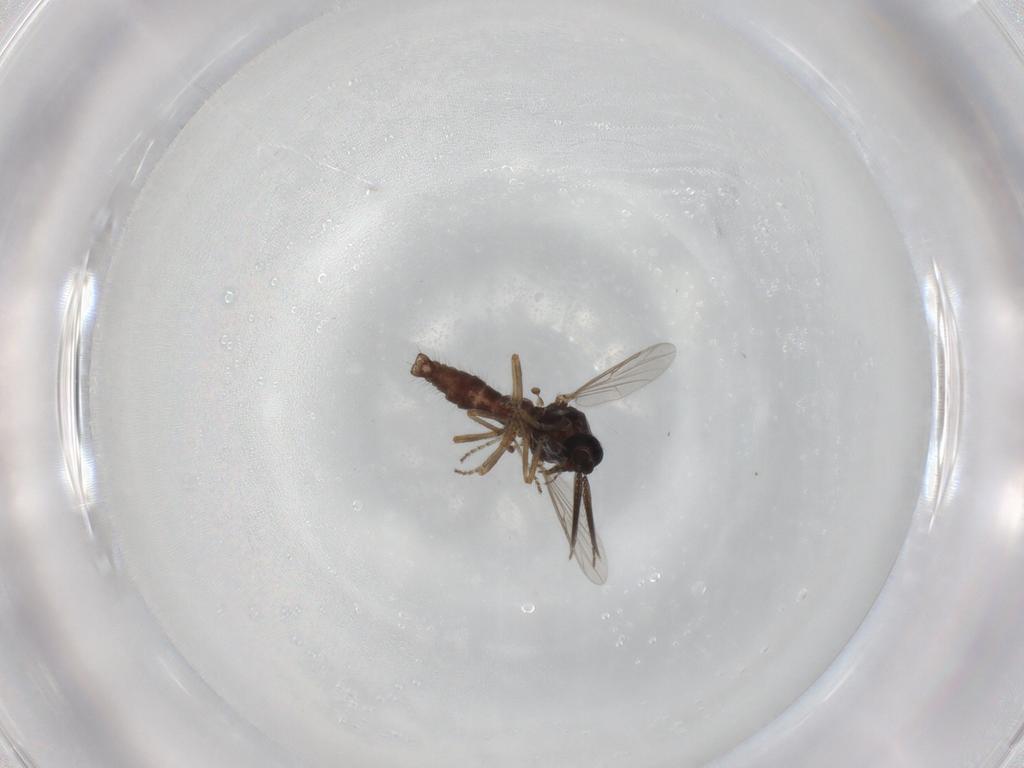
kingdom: Animalia
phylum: Arthropoda
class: Insecta
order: Diptera
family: Ceratopogonidae
